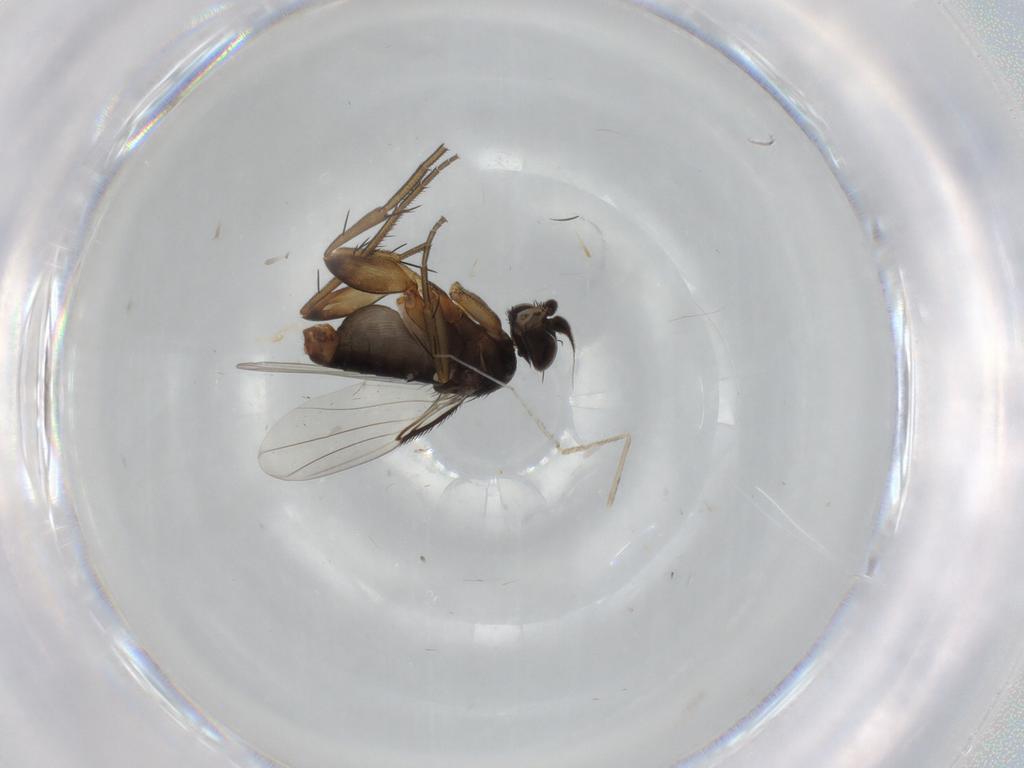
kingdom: Animalia
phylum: Arthropoda
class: Insecta
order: Diptera
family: Phoridae
